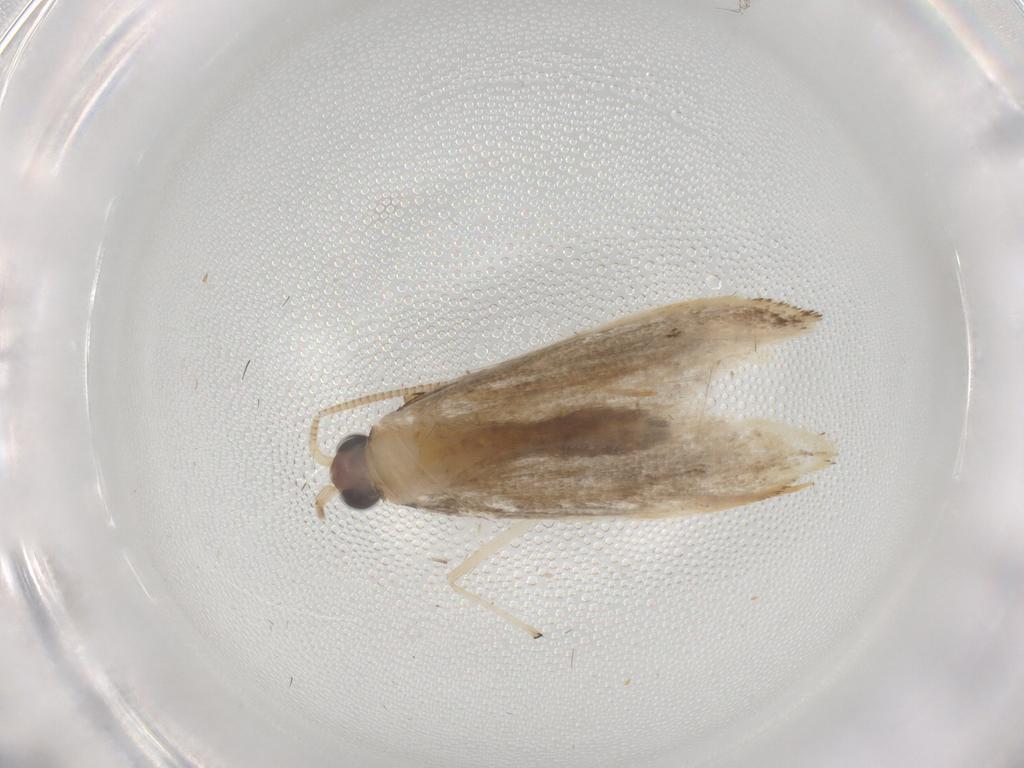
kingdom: Animalia
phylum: Arthropoda
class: Insecta
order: Lepidoptera
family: Nepticulidae
